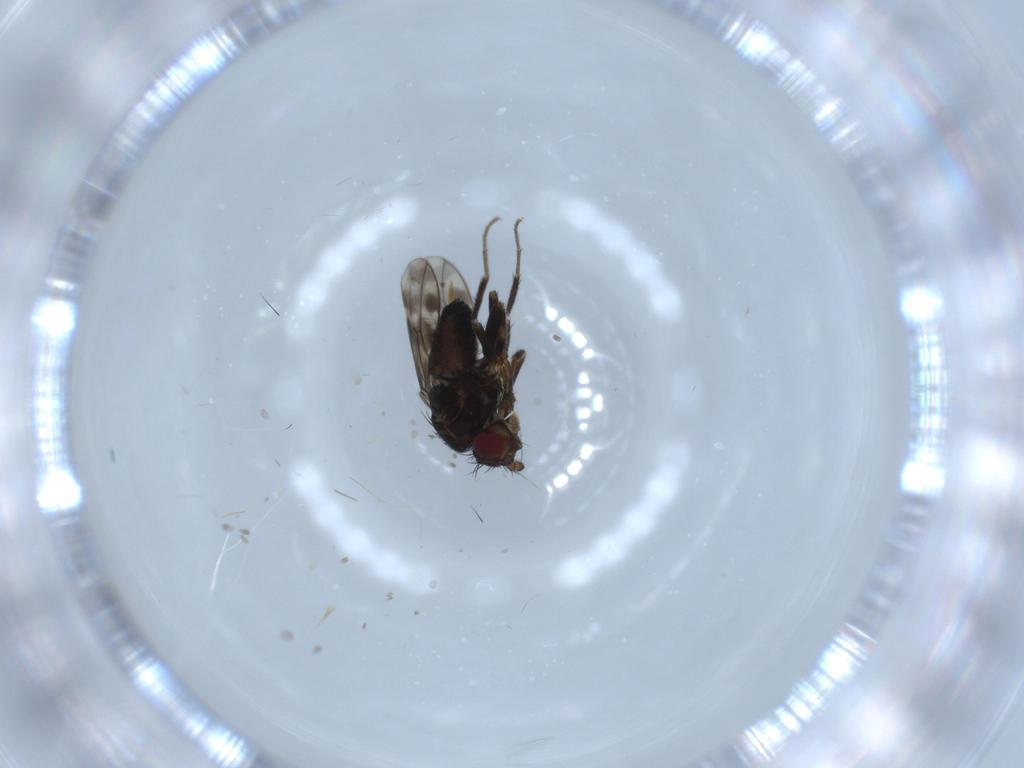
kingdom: Animalia
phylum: Arthropoda
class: Insecta
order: Diptera
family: Sphaeroceridae
